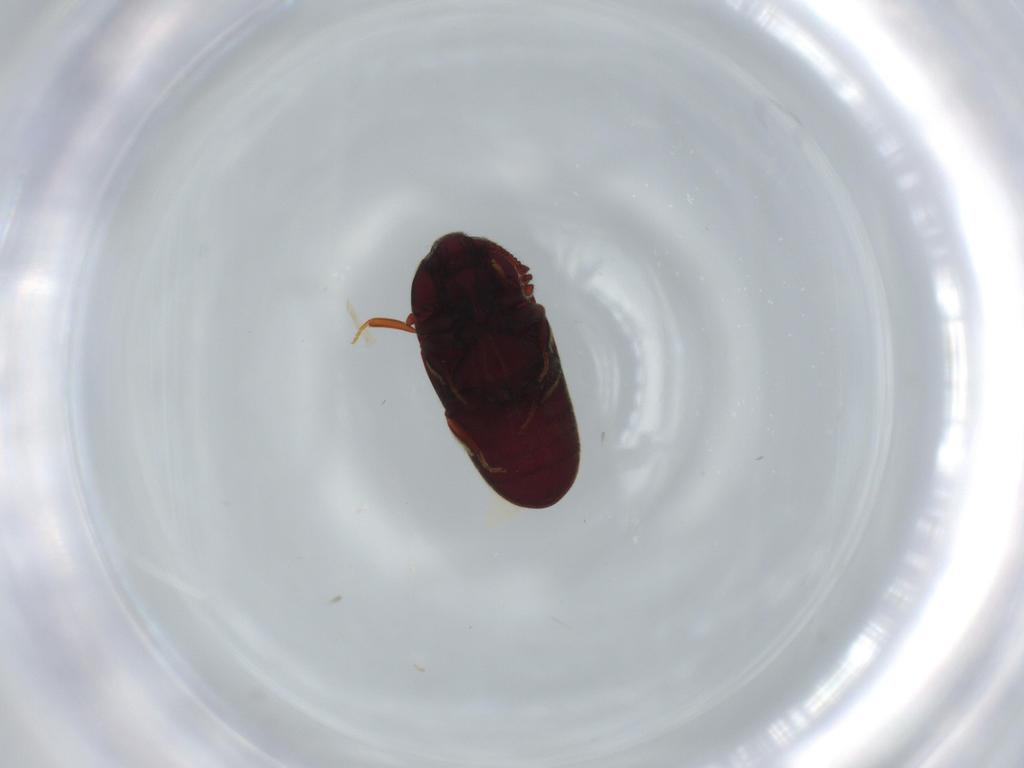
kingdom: Animalia
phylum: Arthropoda
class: Insecta
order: Coleoptera
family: Throscidae
